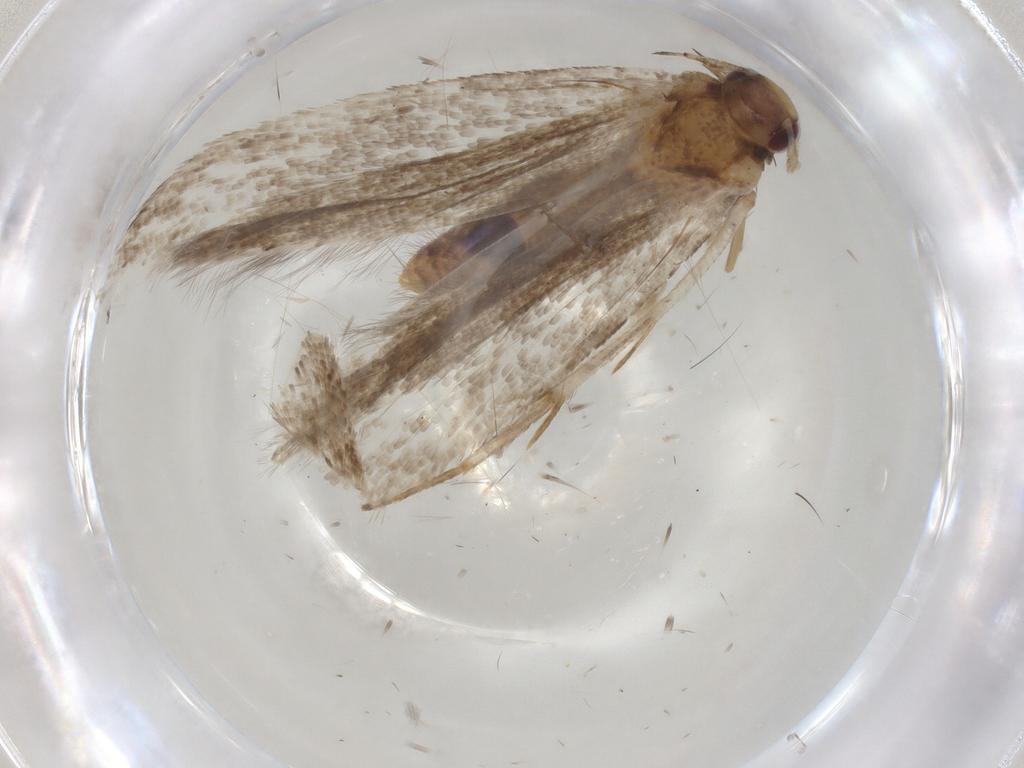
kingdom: Animalia
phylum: Arthropoda
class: Insecta
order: Lepidoptera
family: Gelechiidae
